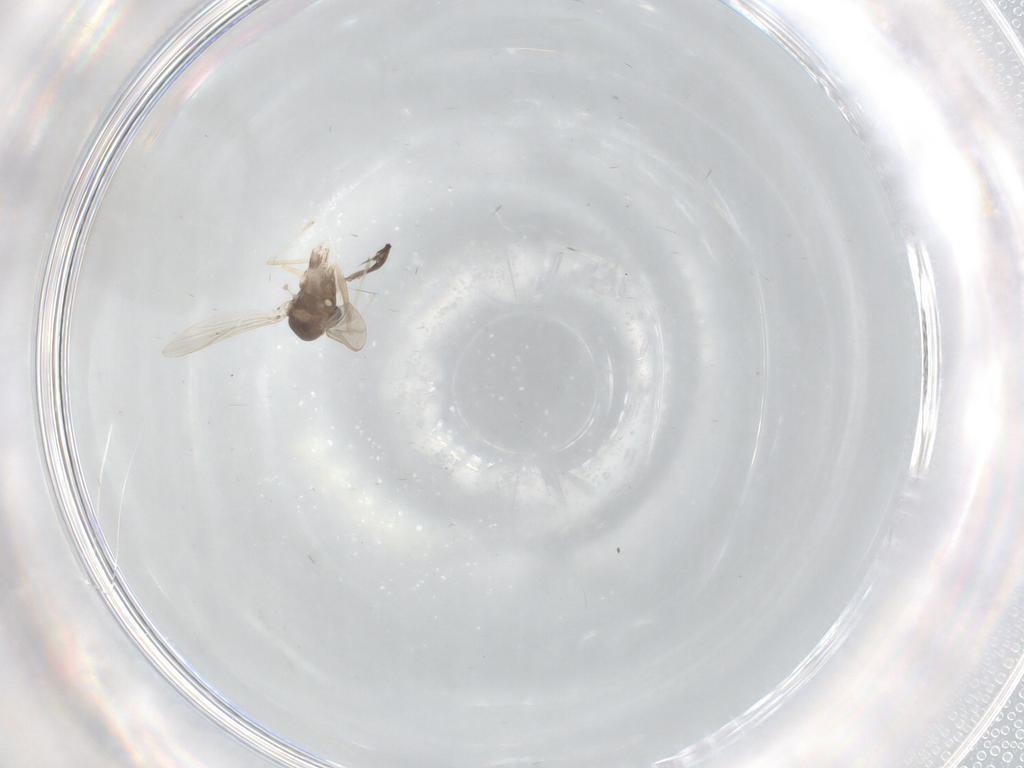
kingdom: Animalia
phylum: Arthropoda
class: Insecta
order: Diptera
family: Chironomidae
